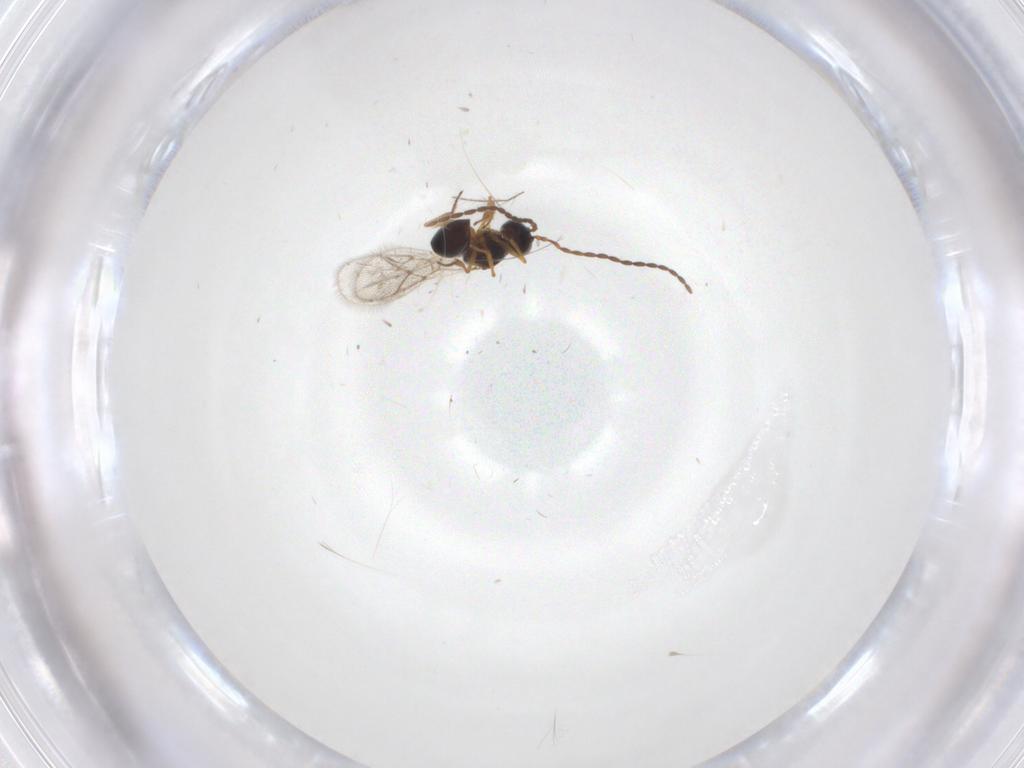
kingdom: Animalia
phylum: Arthropoda
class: Insecta
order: Hymenoptera
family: Figitidae
